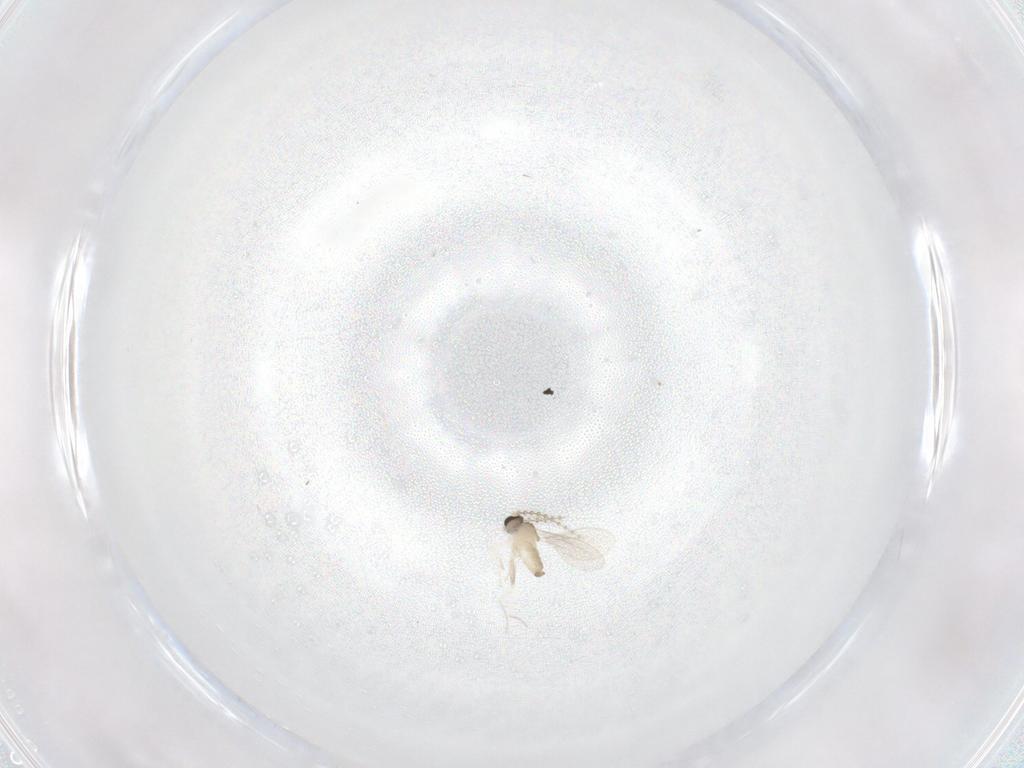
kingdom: Animalia
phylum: Arthropoda
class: Insecta
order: Diptera
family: Cecidomyiidae
